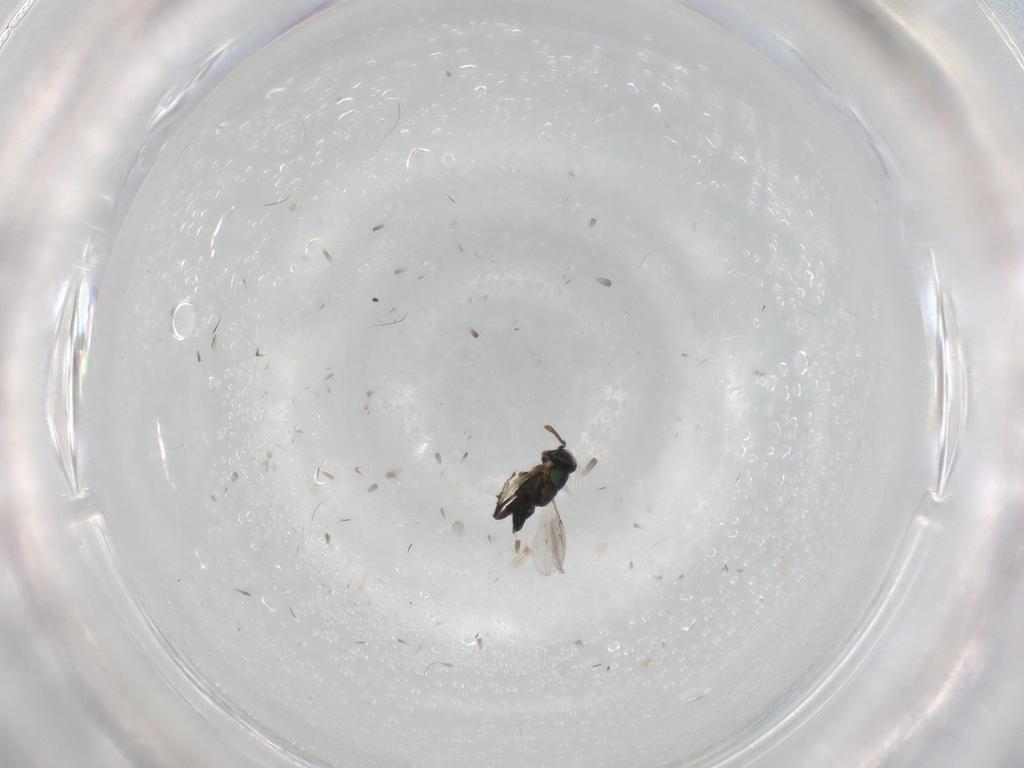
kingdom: Animalia
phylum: Arthropoda
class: Insecta
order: Hymenoptera
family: Encyrtidae
